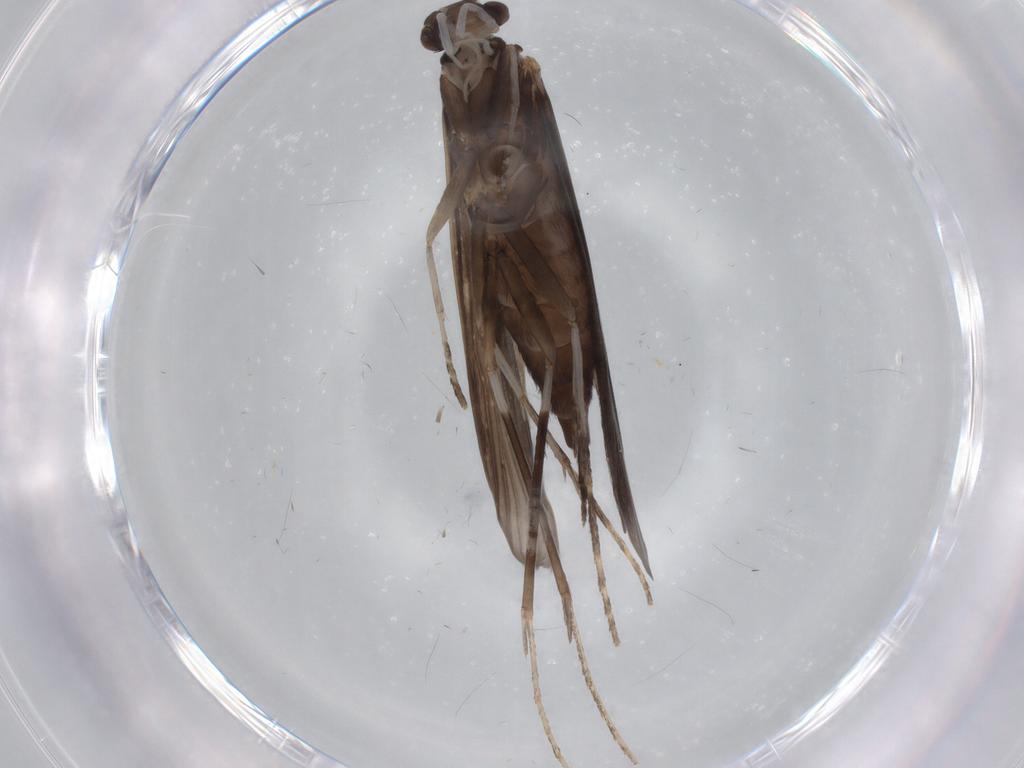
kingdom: Animalia
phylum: Arthropoda
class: Insecta
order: Trichoptera
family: Xiphocentronidae
